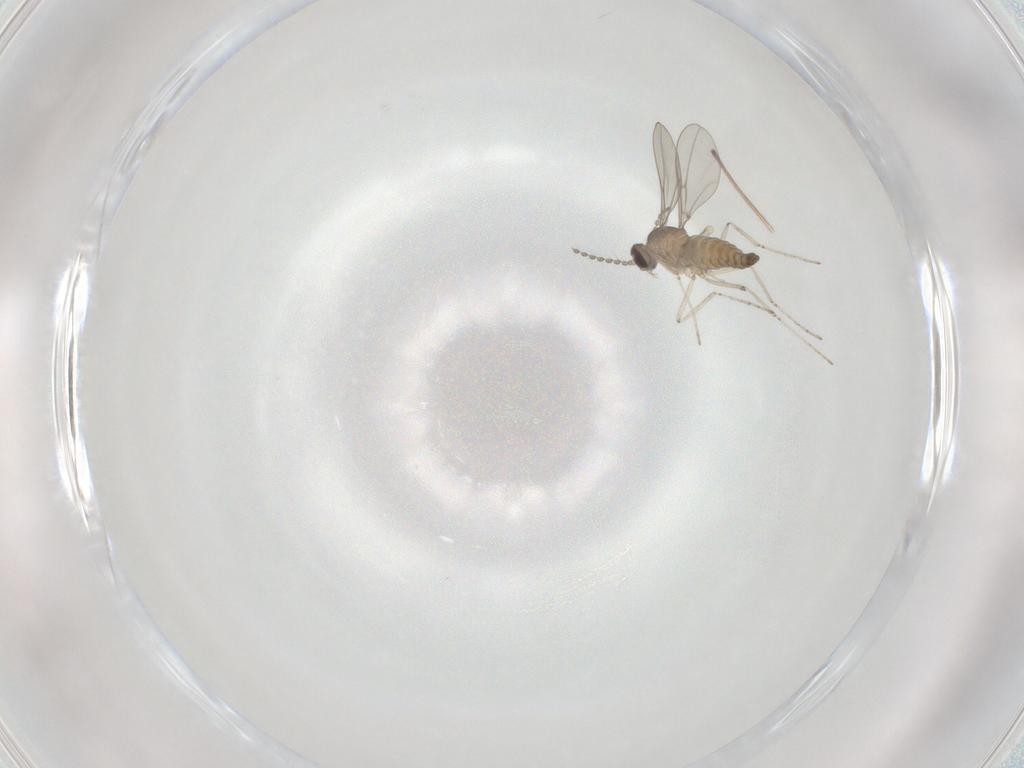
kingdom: Animalia
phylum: Arthropoda
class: Insecta
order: Diptera
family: Cecidomyiidae
